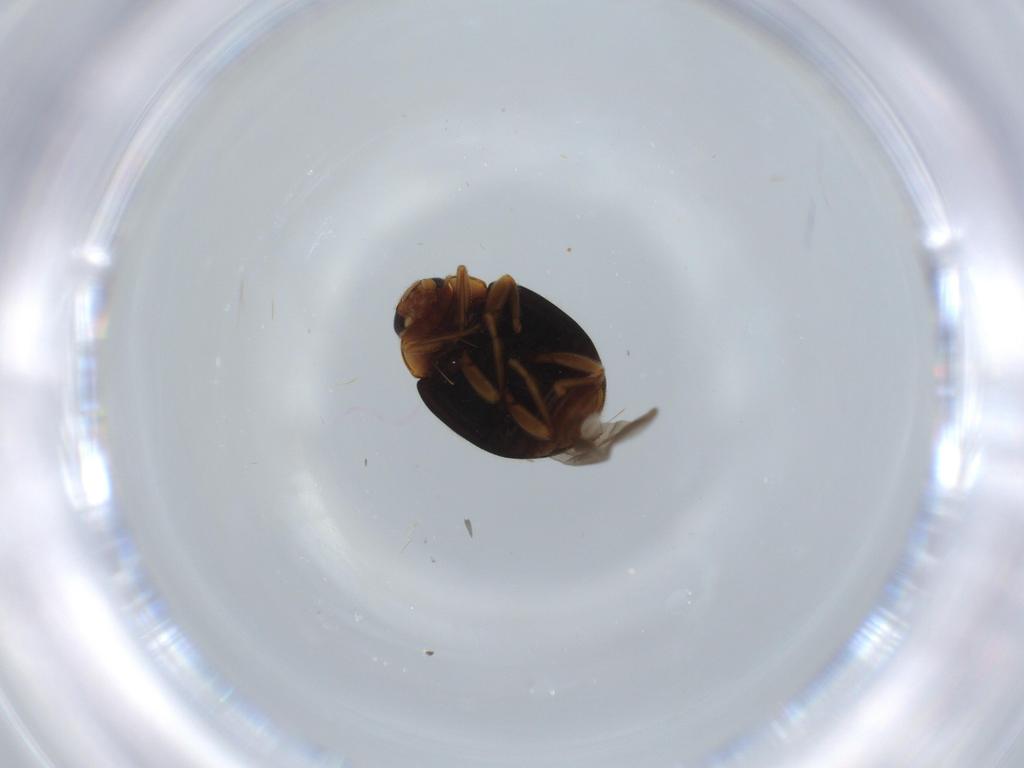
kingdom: Animalia
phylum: Arthropoda
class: Insecta
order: Coleoptera
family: Coccinellidae
